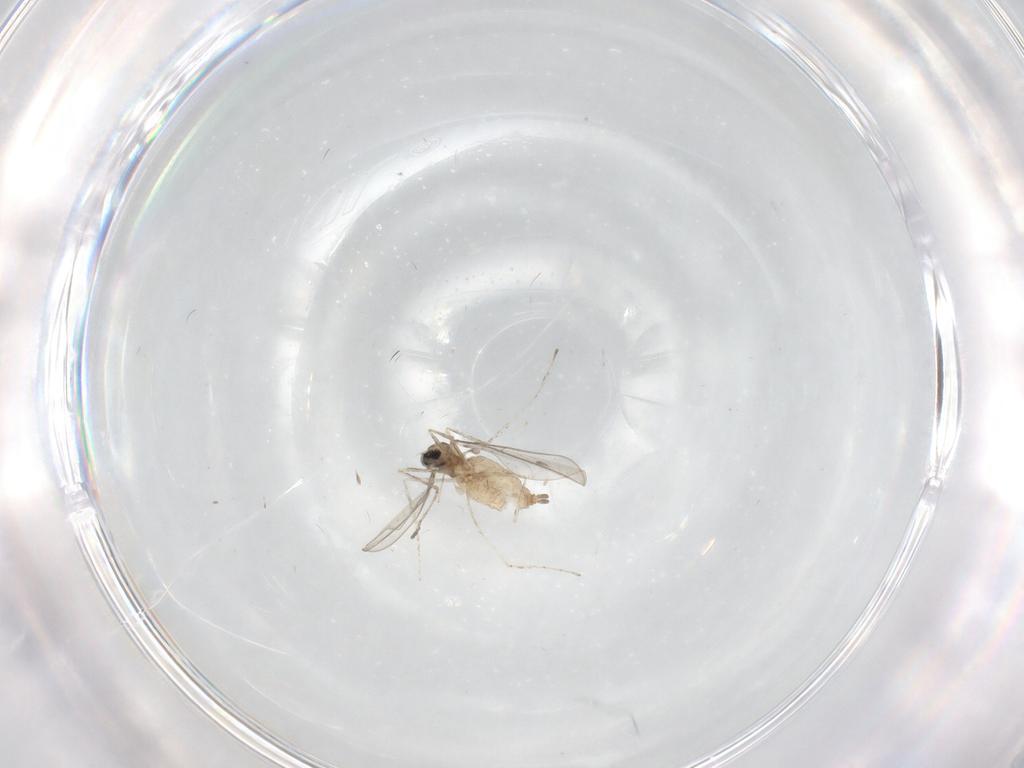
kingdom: Animalia
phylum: Arthropoda
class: Insecta
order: Diptera
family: Cecidomyiidae
